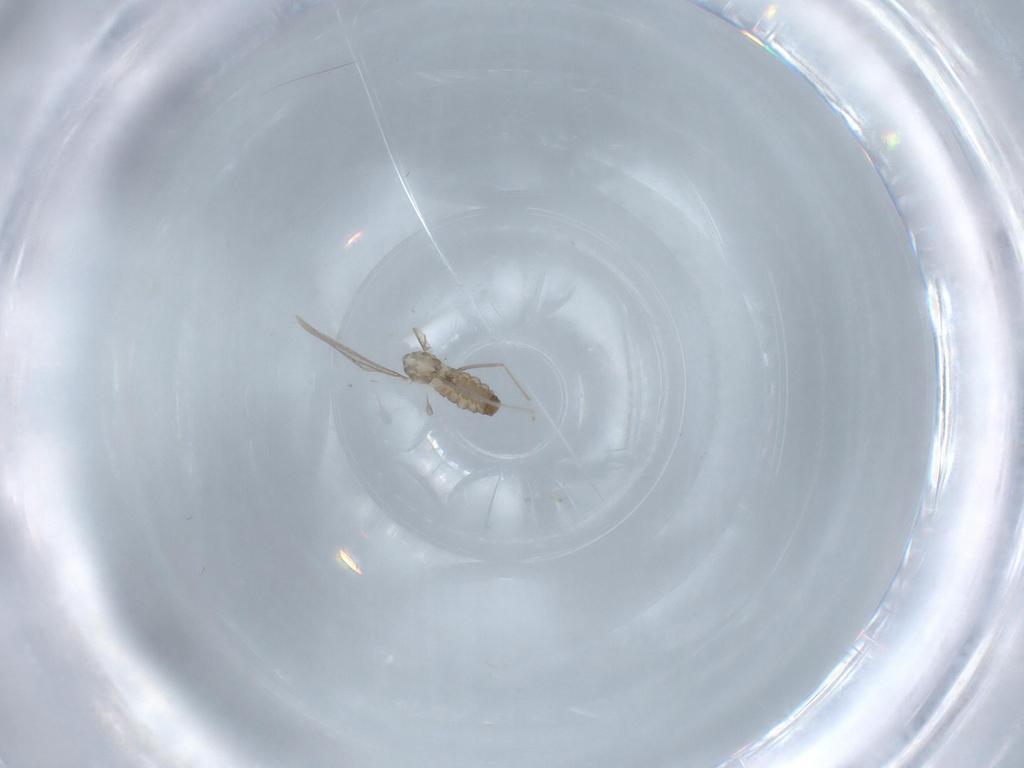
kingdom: Animalia
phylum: Arthropoda
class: Insecta
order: Diptera
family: Cecidomyiidae
